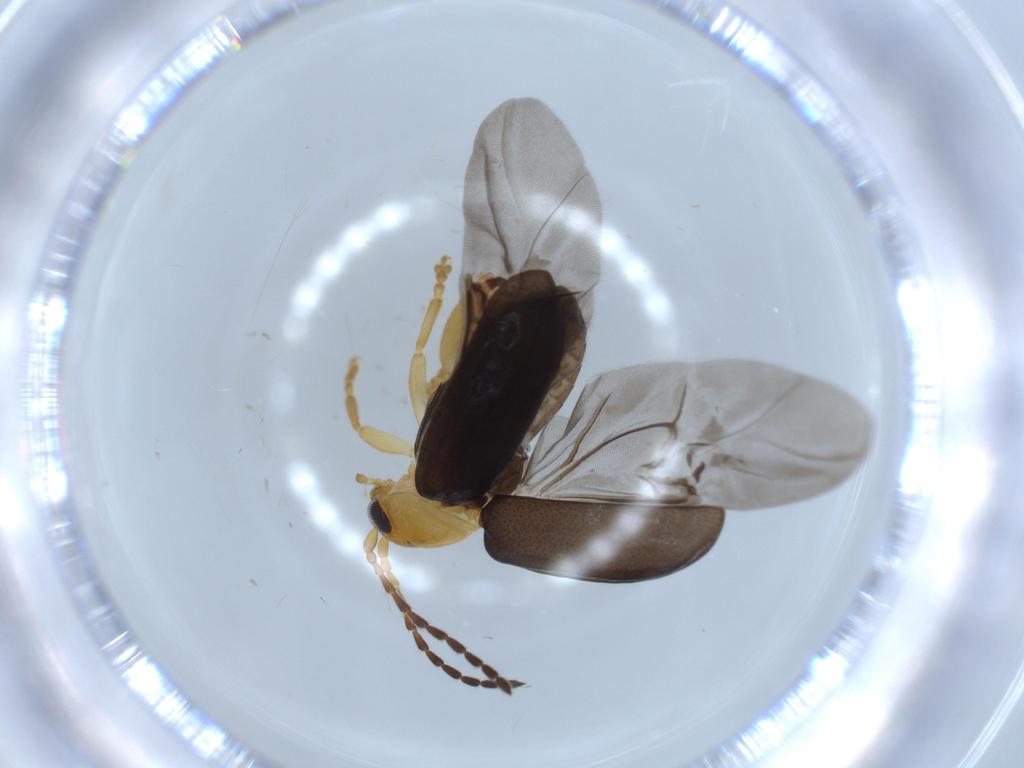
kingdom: Animalia
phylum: Arthropoda
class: Insecta
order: Coleoptera
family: Chrysomelidae
